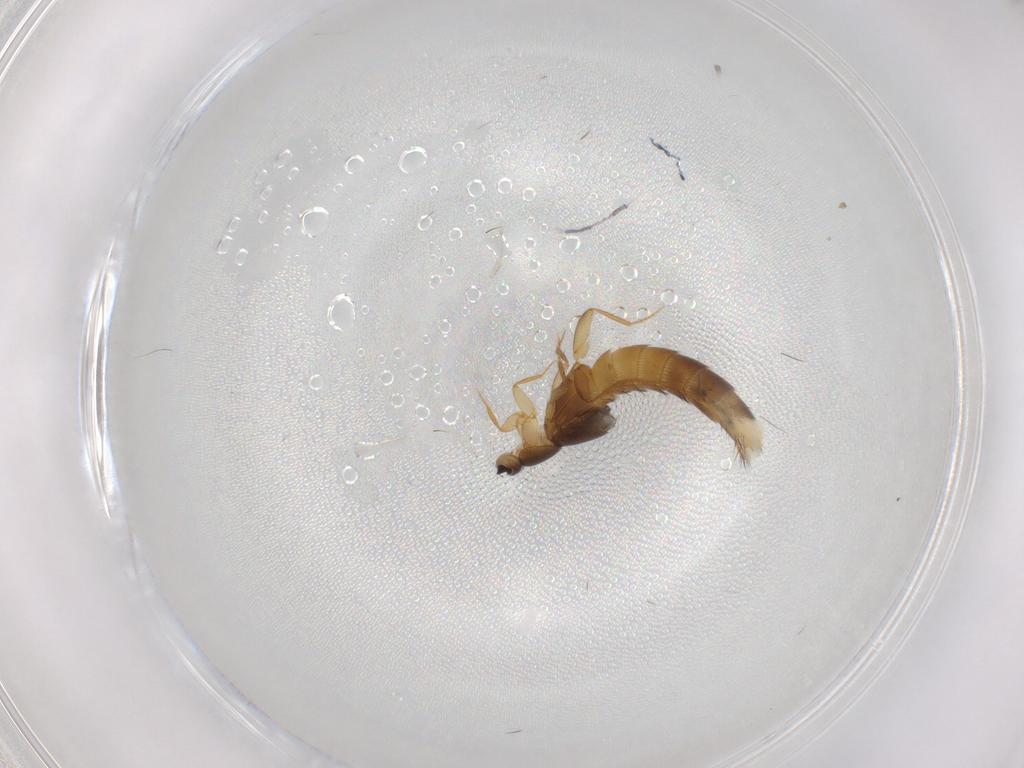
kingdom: Animalia
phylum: Arthropoda
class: Insecta
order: Coleoptera
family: Staphylinidae
